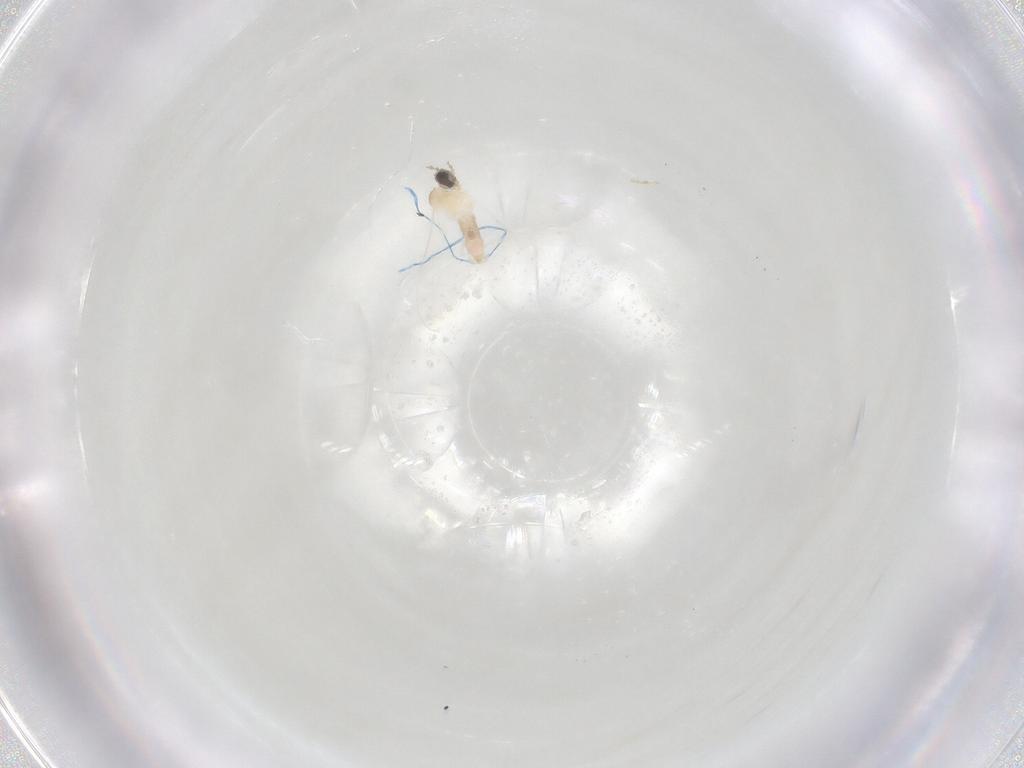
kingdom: Animalia
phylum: Arthropoda
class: Insecta
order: Diptera
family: Cecidomyiidae
